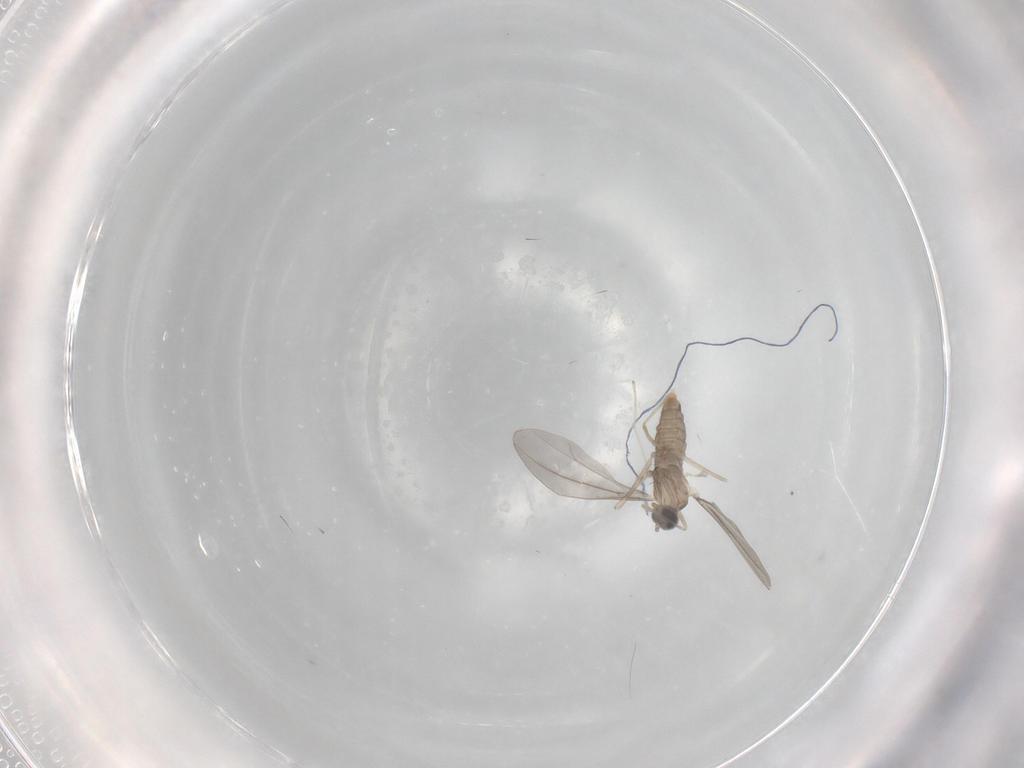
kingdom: Animalia
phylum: Arthropoda
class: Insecta
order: Diptera
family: Cecidomyiidae
